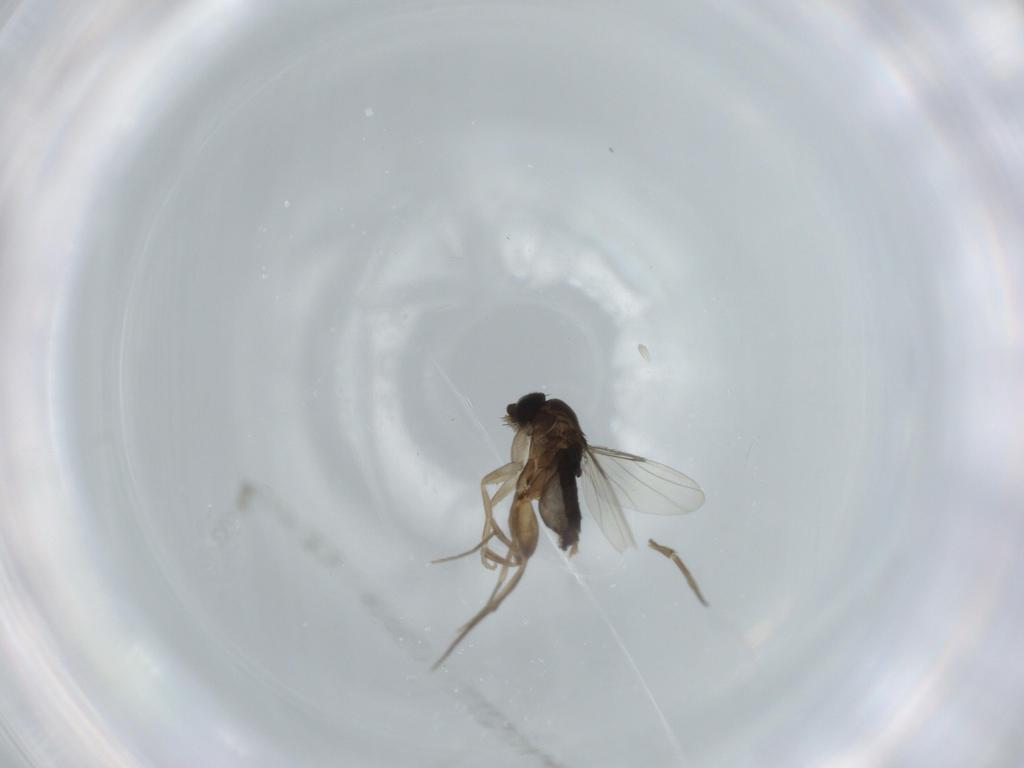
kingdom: Animalia
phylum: Arthropoda
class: Insecta
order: Diptera
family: Phoridae
